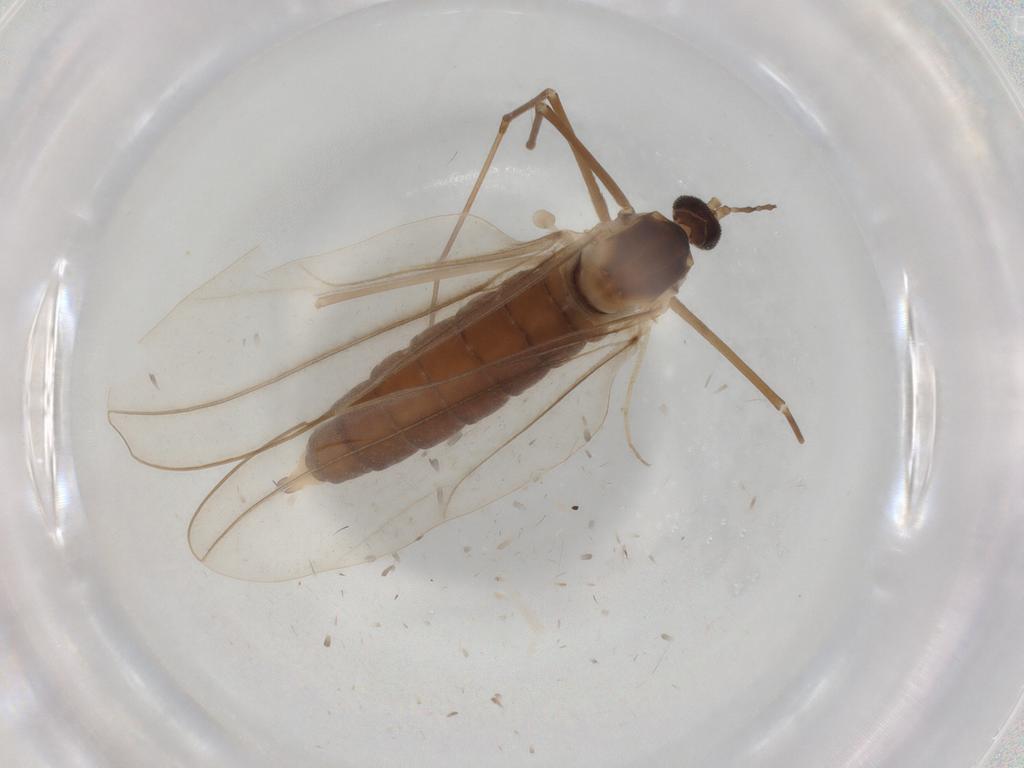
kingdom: Animalia
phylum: Arthropoda
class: Insecta
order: Diptera
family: Cecidomyiidae
